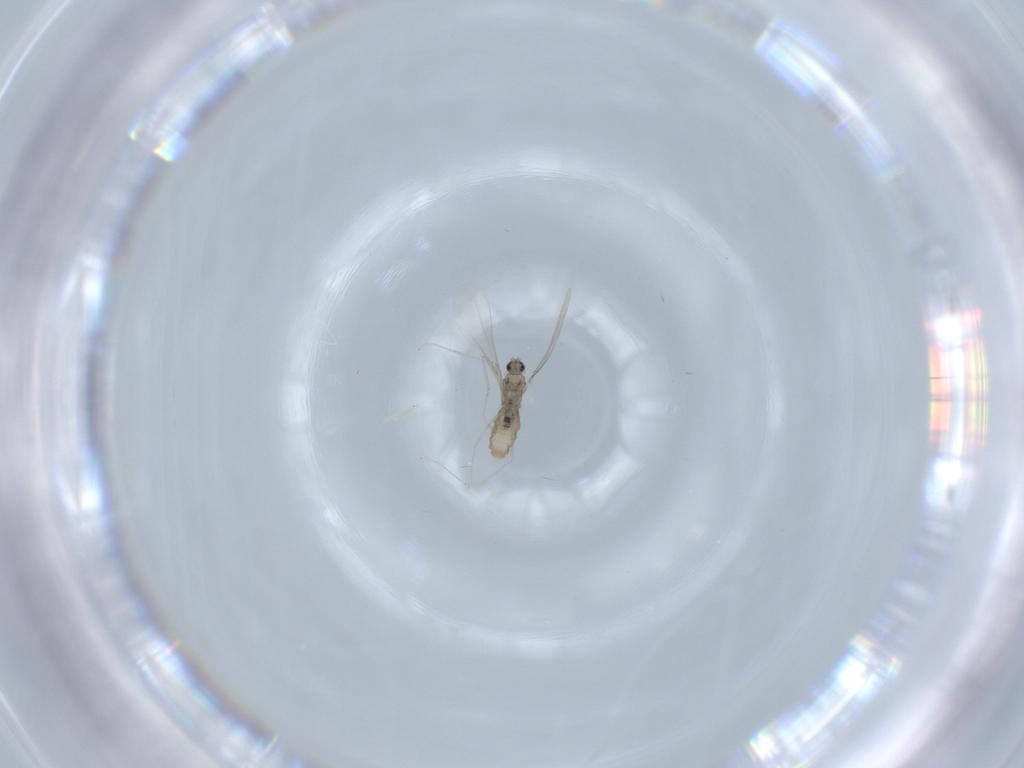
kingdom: Animalia
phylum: Arthropoda
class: Insecta
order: Diptera
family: Cecidomyiidae
